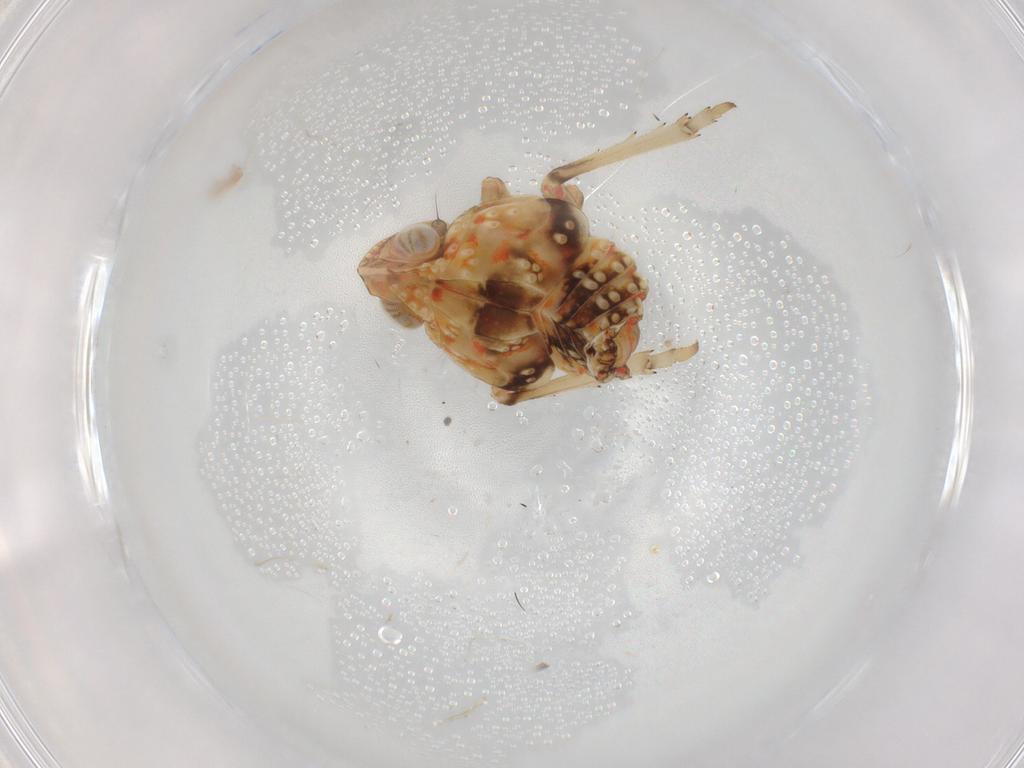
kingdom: Animalia
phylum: Arthropoda
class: Insecta
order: Hemiptera
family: Tropiduchidae
